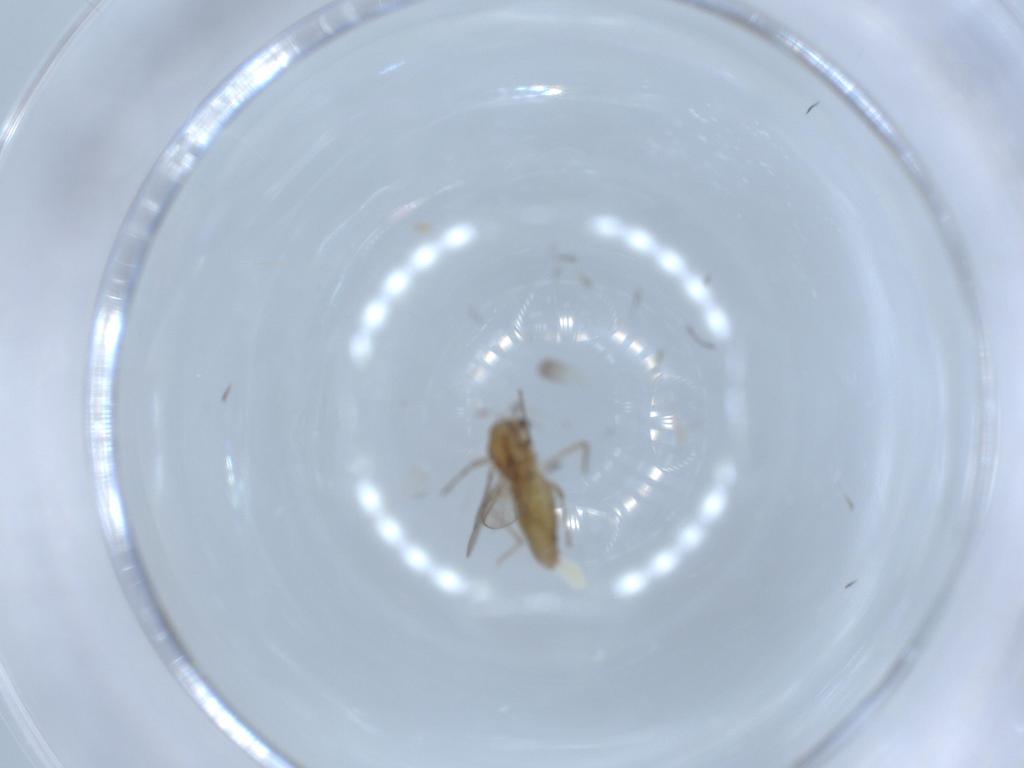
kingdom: Animalia
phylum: Arthropoda
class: Insecta
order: Diptera
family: Chironomidae
